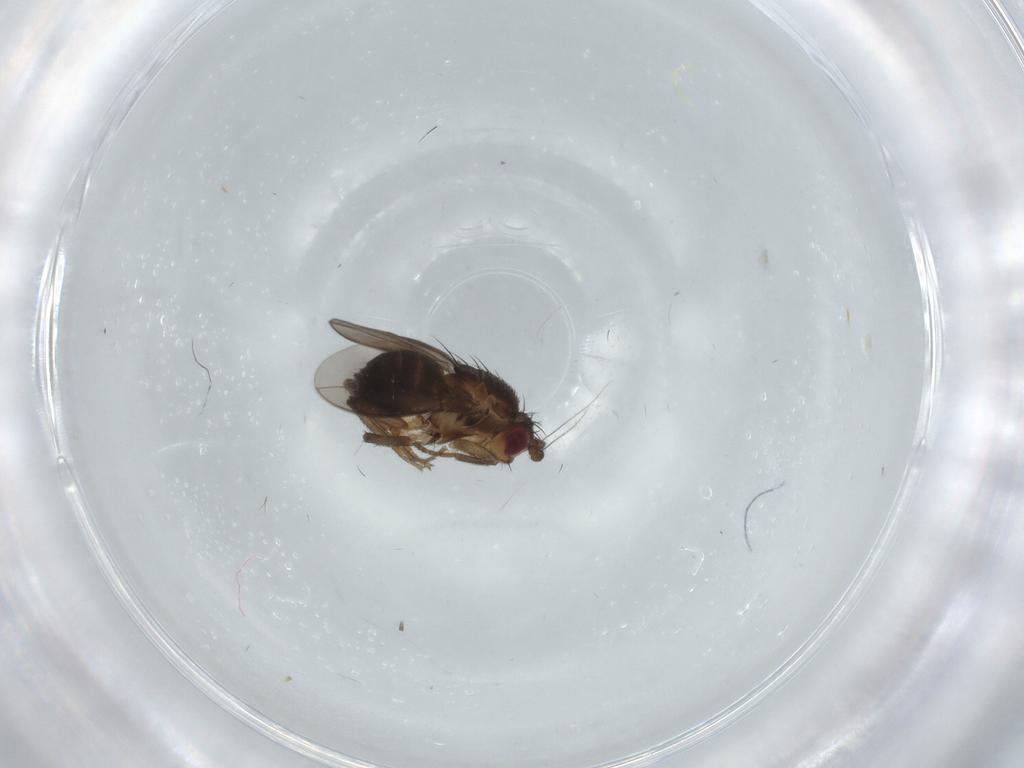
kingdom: Animalia
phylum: Arthropoda
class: Insecta
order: Diptera
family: Sphaeroceridae
